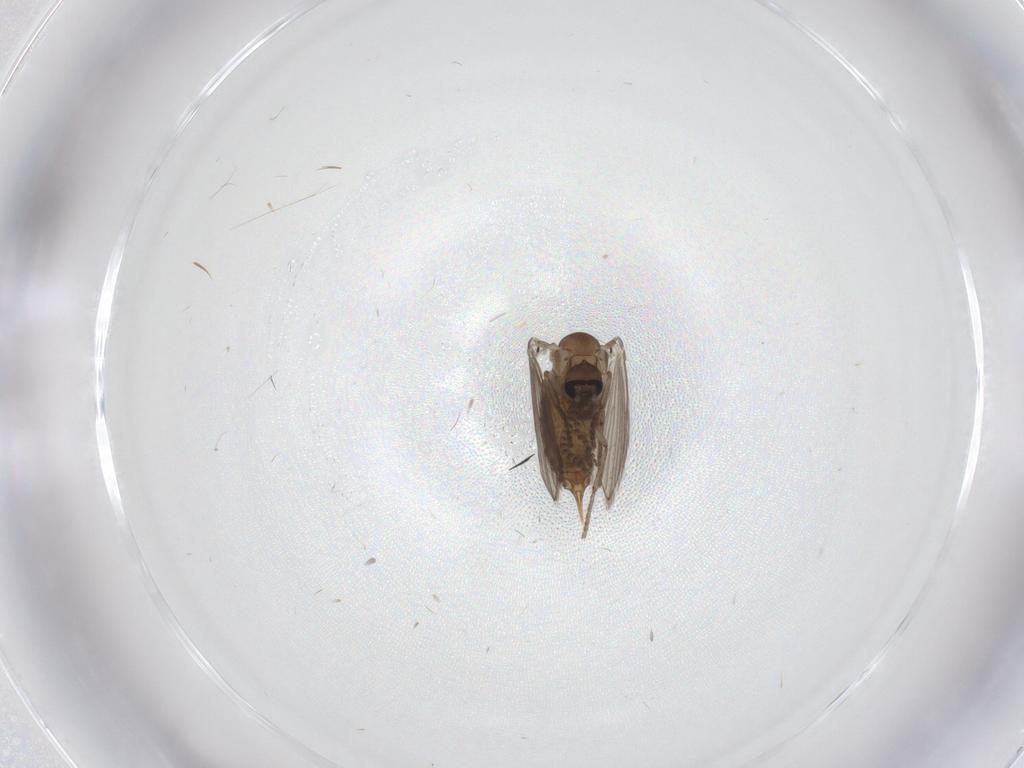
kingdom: Animalia
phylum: Arthropoda
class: Insecta
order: Diptera
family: Psychodidae
